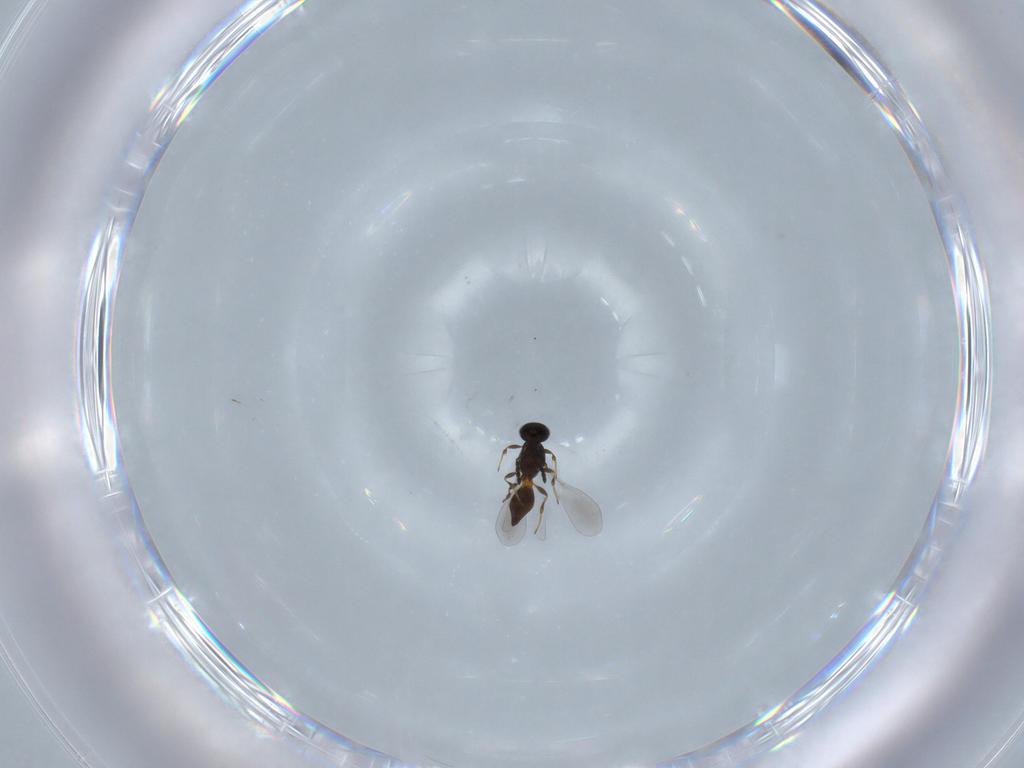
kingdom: Animalia
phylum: Arthropoda
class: Insecta
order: Hymenoptera
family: Platygastridae
